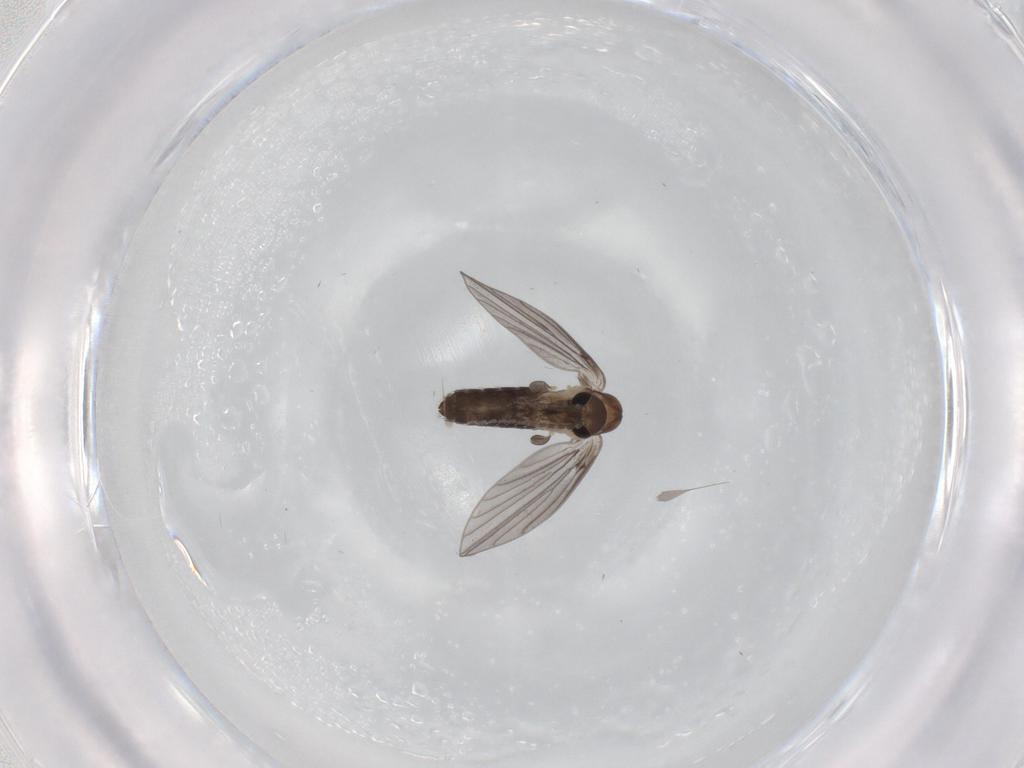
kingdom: Animalia
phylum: Arthropoda
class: Insecta
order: Diptera
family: Psychodidae
